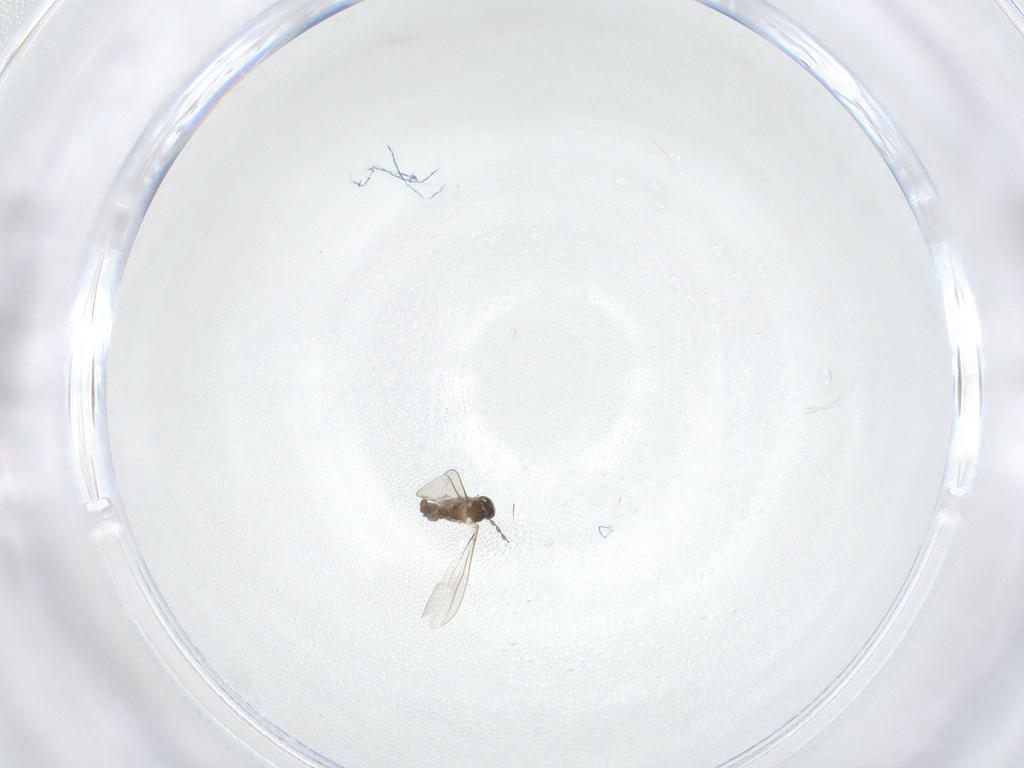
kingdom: Animalia
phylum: Arthropoda
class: Insecta
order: Diptera
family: Cecidomyiidae
